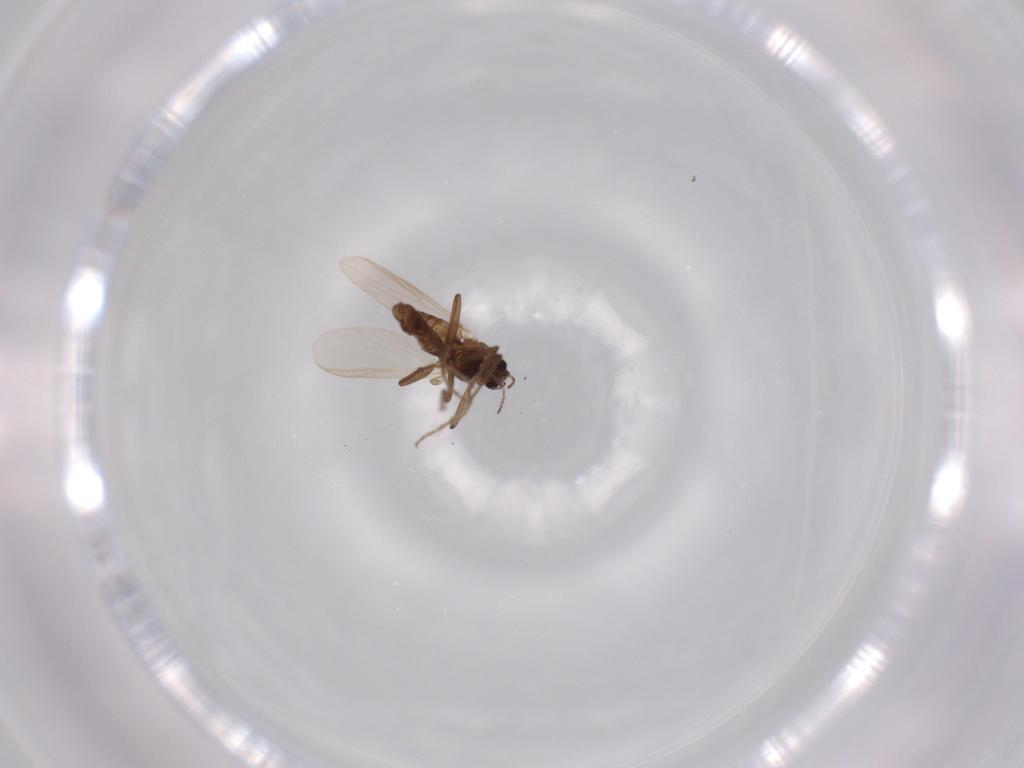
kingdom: Animalia
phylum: Arthropoda
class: Insecta
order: Diptera
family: Chironomidae
